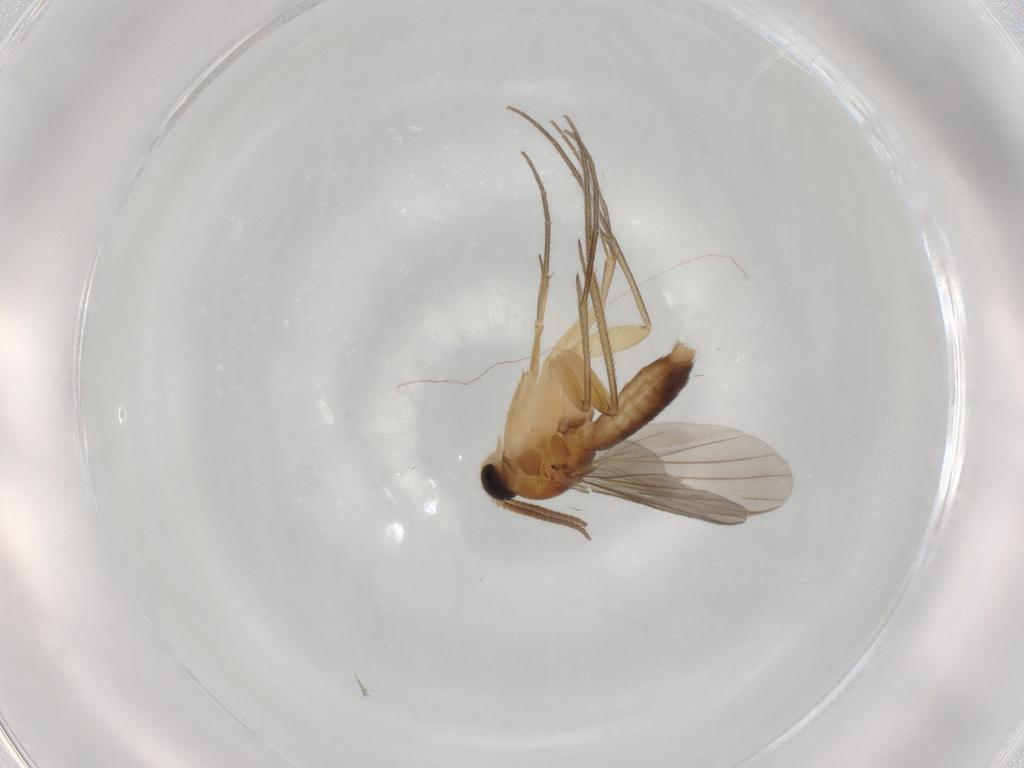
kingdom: Animalia
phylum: Arthropoda
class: Insecta
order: Diptera
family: Mycetophilidae
